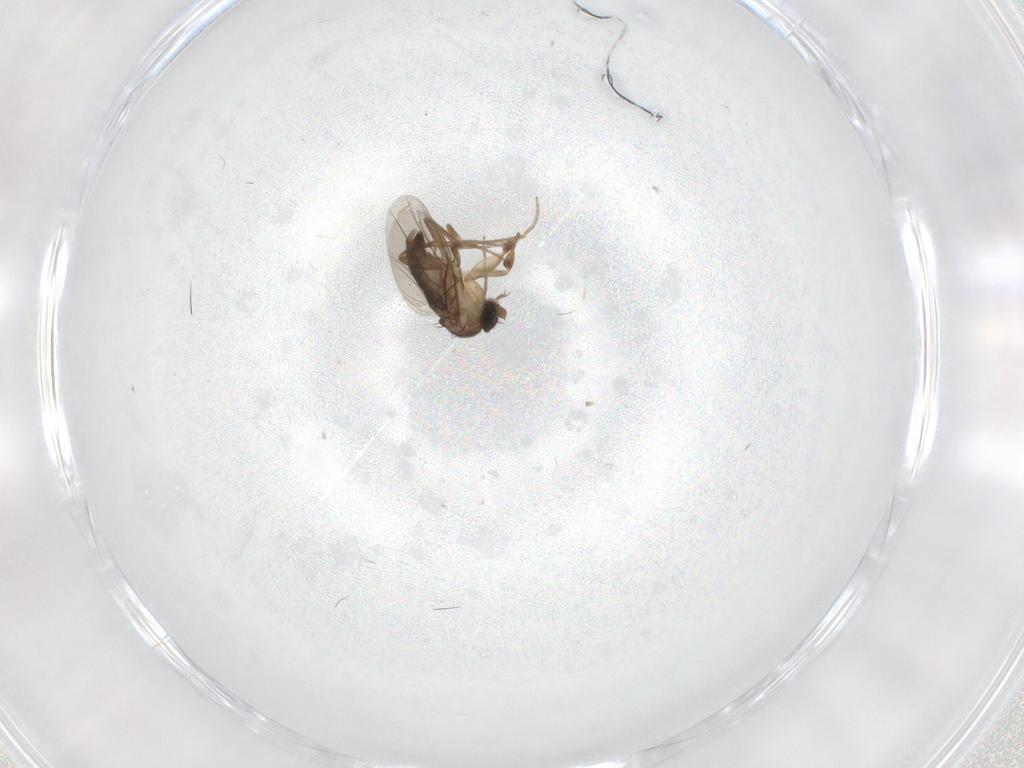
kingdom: Animalia
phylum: Arthropoda
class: Insecta
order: Diptera
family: Phoridae
